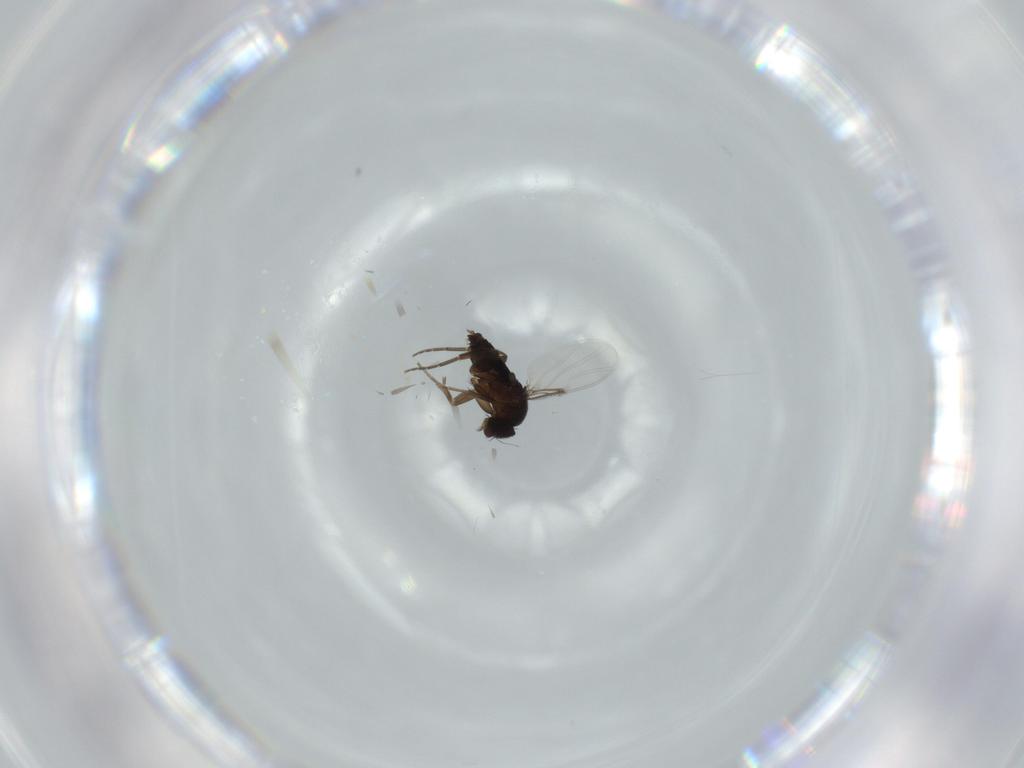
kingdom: Animalia
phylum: Arthropoda
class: Insecta
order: Diptera
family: Phoridae
